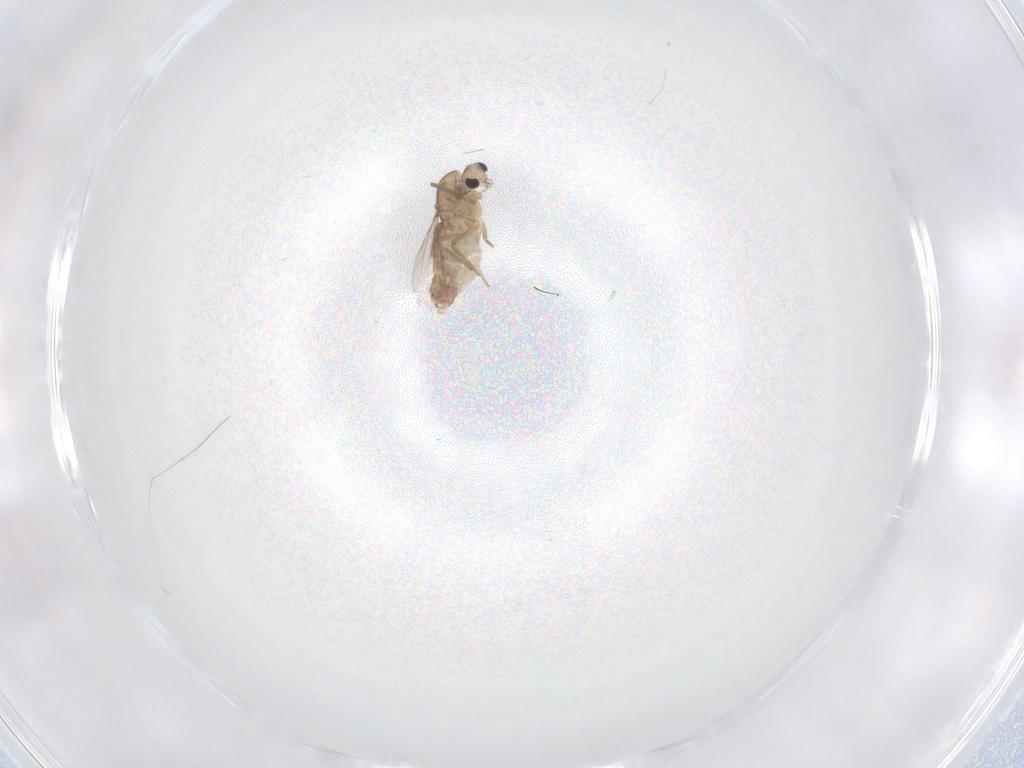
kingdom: Animalia
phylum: Arthropoda
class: Insecta
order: Diptera
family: Chironomidae
